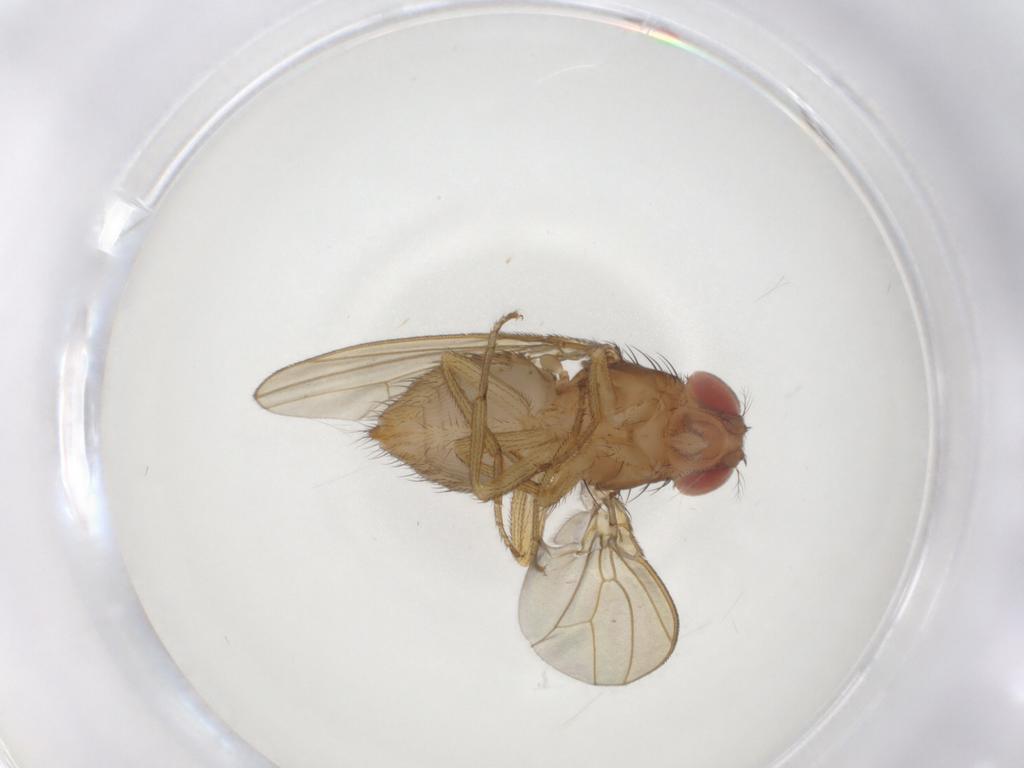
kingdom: Animalia
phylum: Arthropoda
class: Insecta
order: Diptera
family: Drosophilidae
